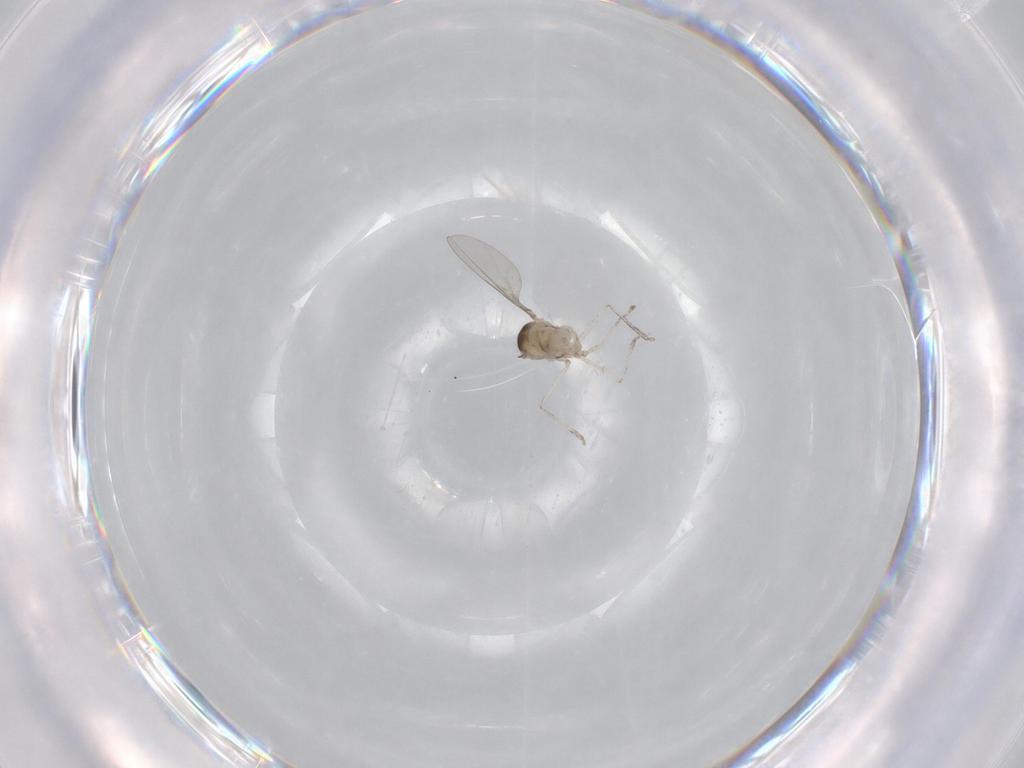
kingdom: Animalia
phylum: Arthropoda
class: Insecta
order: Diptera
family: Cecidomyiidae
